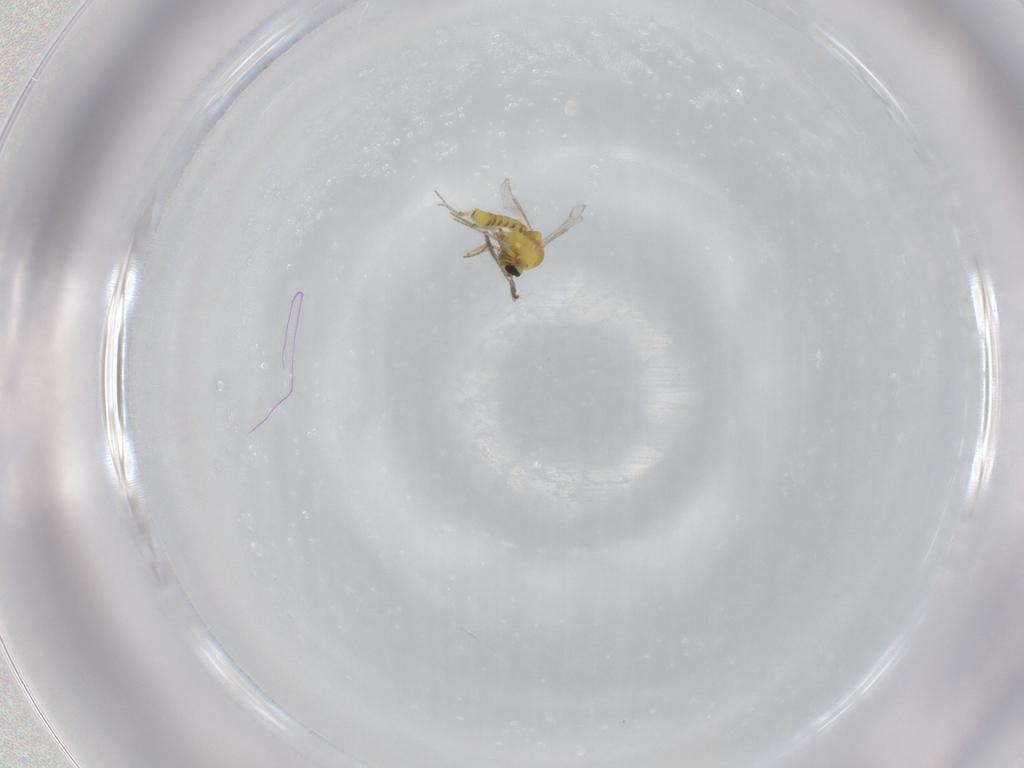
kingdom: Animalia
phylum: Arthropoda
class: Insecta
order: Diptera
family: Ceratopogonidae
